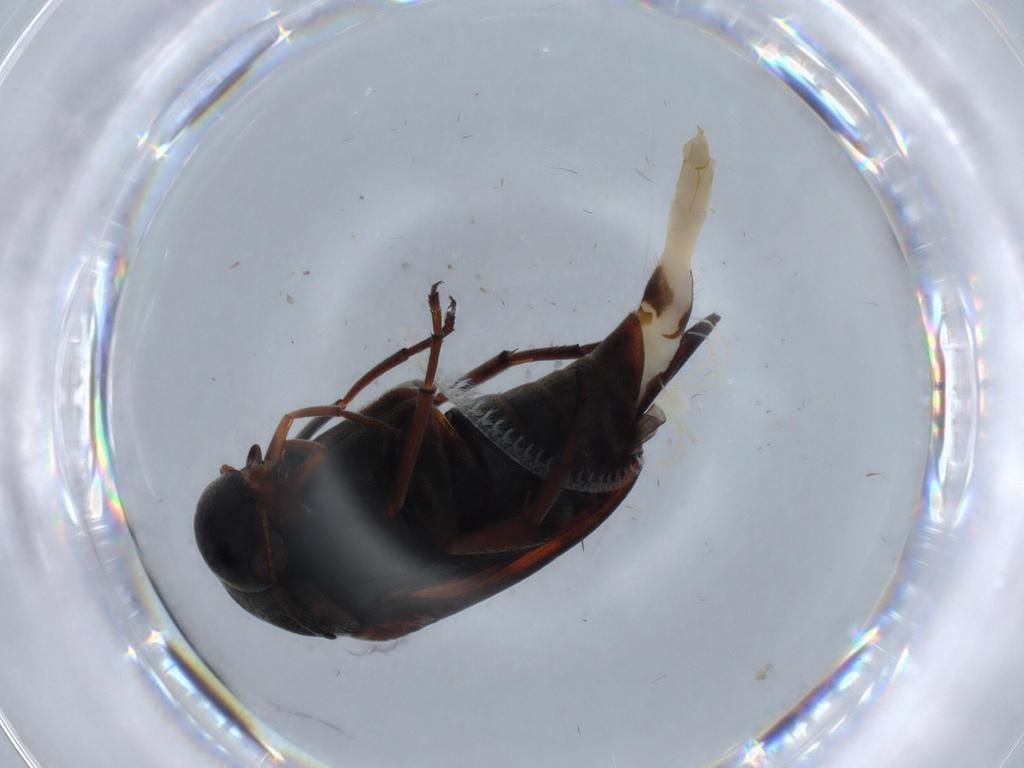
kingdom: Animalia
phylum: Arthropoda
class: Insecta
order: Coleoptera
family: Mordellidae
